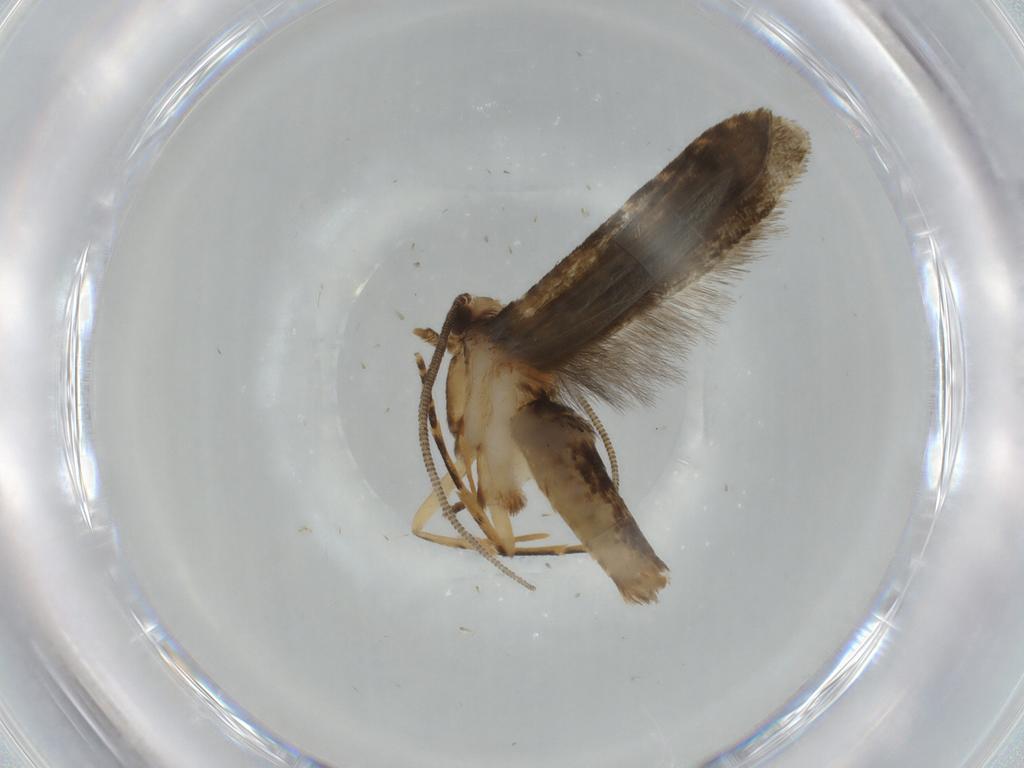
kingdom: Animalia
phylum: Arthropoda
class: Insecta
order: Lepidoptera
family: Tineidae
